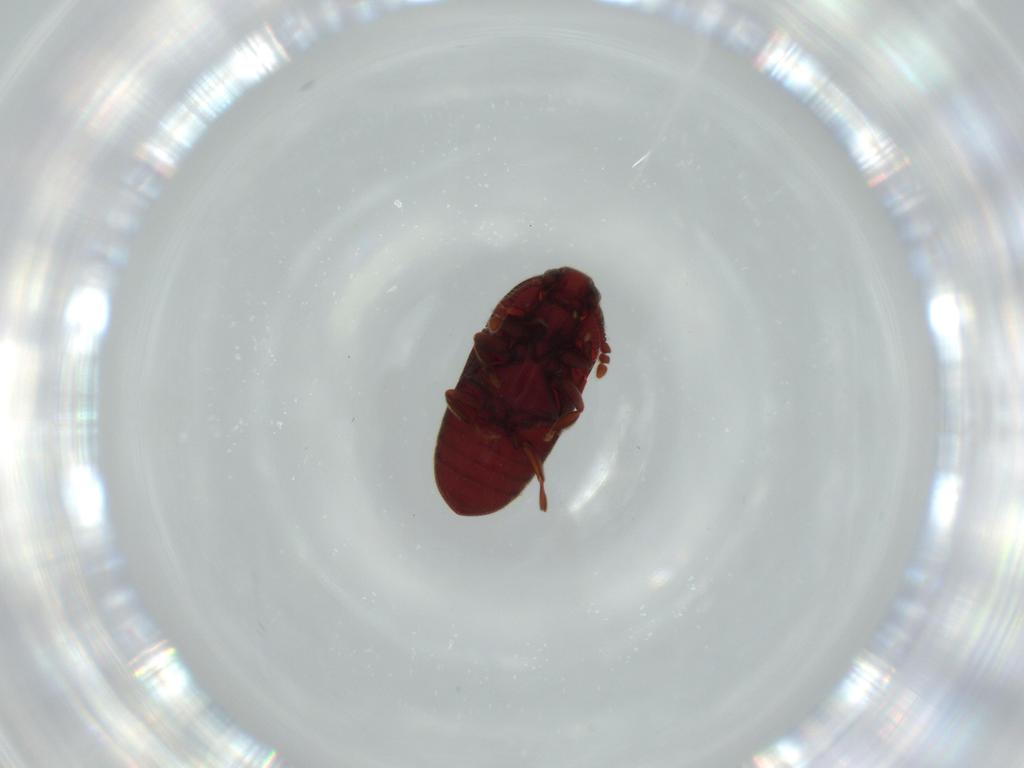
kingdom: Animalia
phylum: Arthropoda
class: Insecta
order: Coleoptera
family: Throscidae
